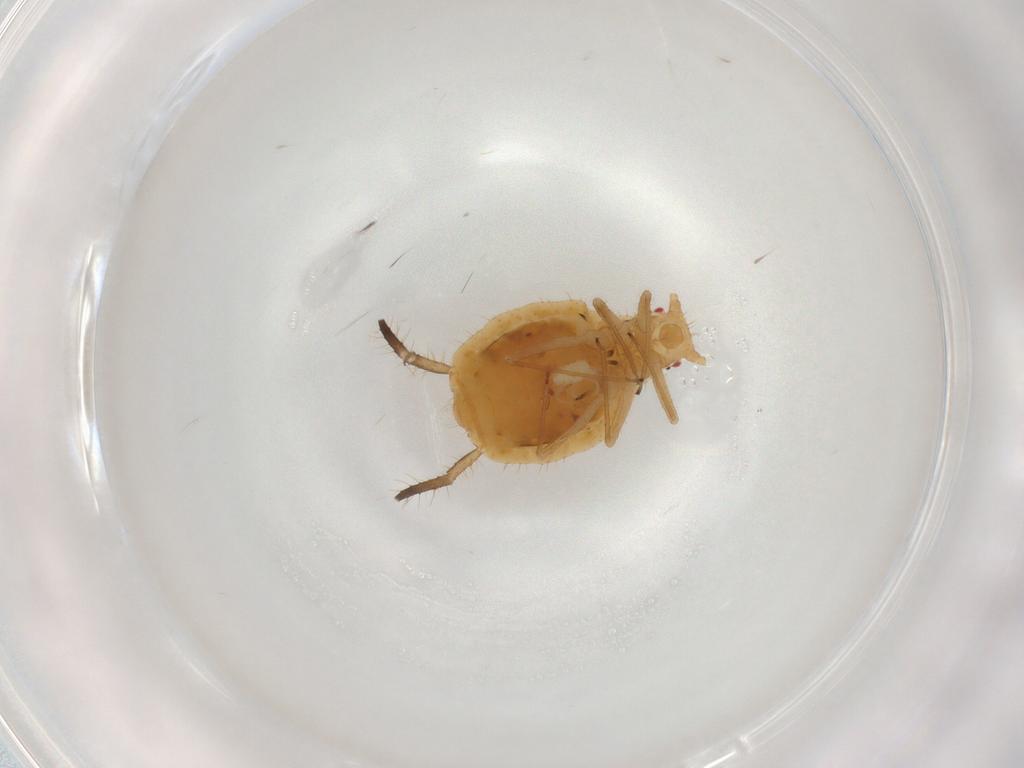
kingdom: Animalia
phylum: Arthropoda
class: Insecta
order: Hemiptera
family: Aphididae
